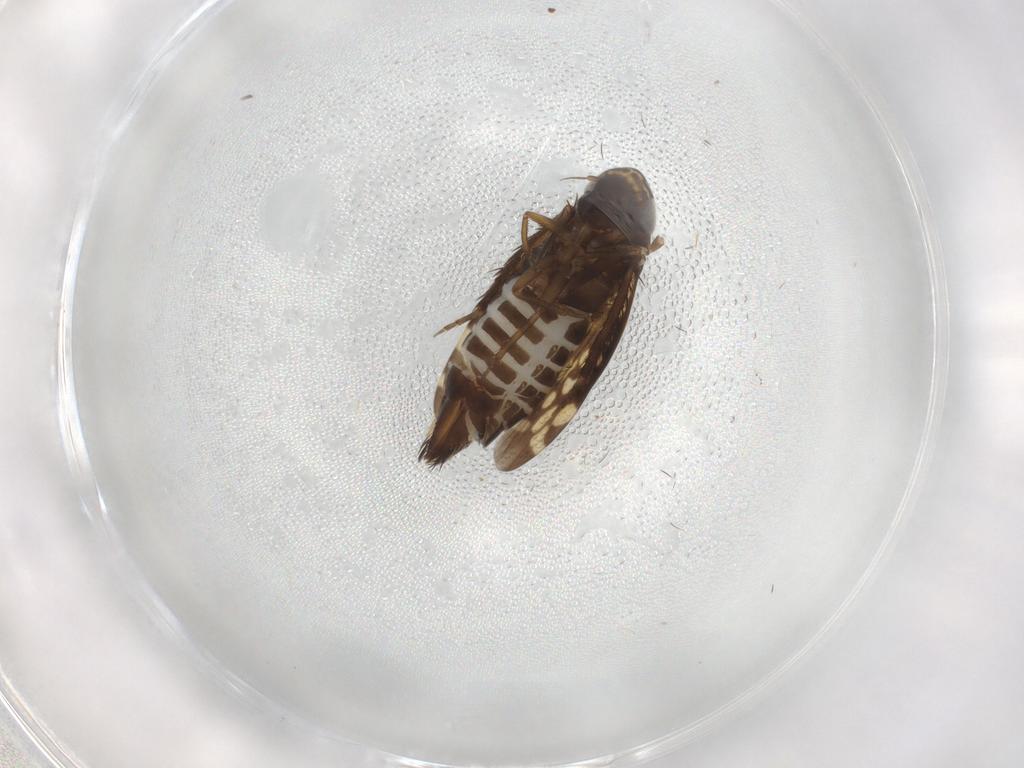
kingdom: Animalia
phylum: Arthropoda
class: Insecta
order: Hemiptera
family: Cicadellidae
